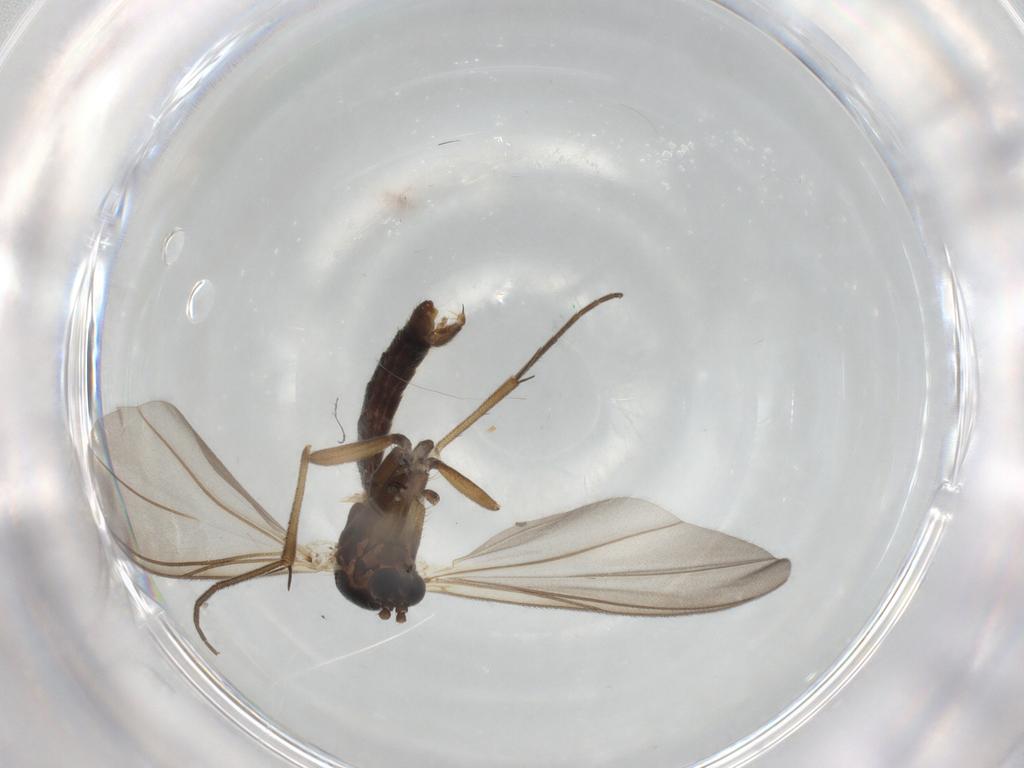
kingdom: Animalia
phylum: Arthropoda
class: Insecta
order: Diptera
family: Mycetophilidae
